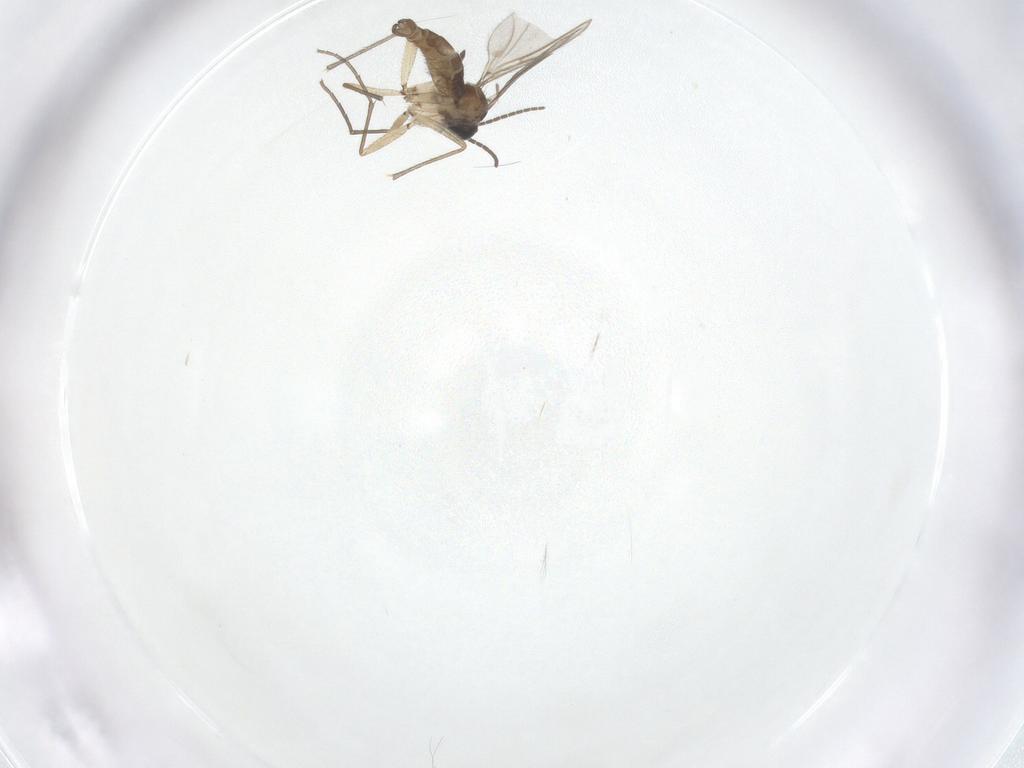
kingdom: Animalia
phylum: Arthropoda
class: Insecta
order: Diptera
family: Sciaridae
